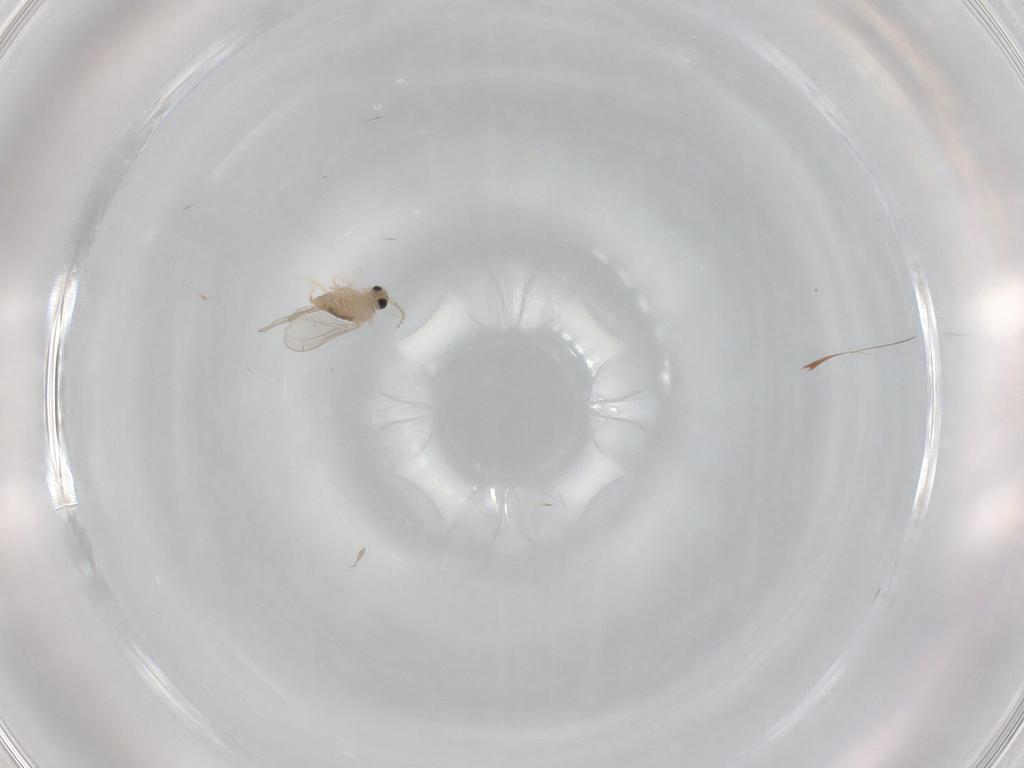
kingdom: Animalia
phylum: Arthropoda
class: Insecta
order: Diptera
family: Cecidomyiidae
